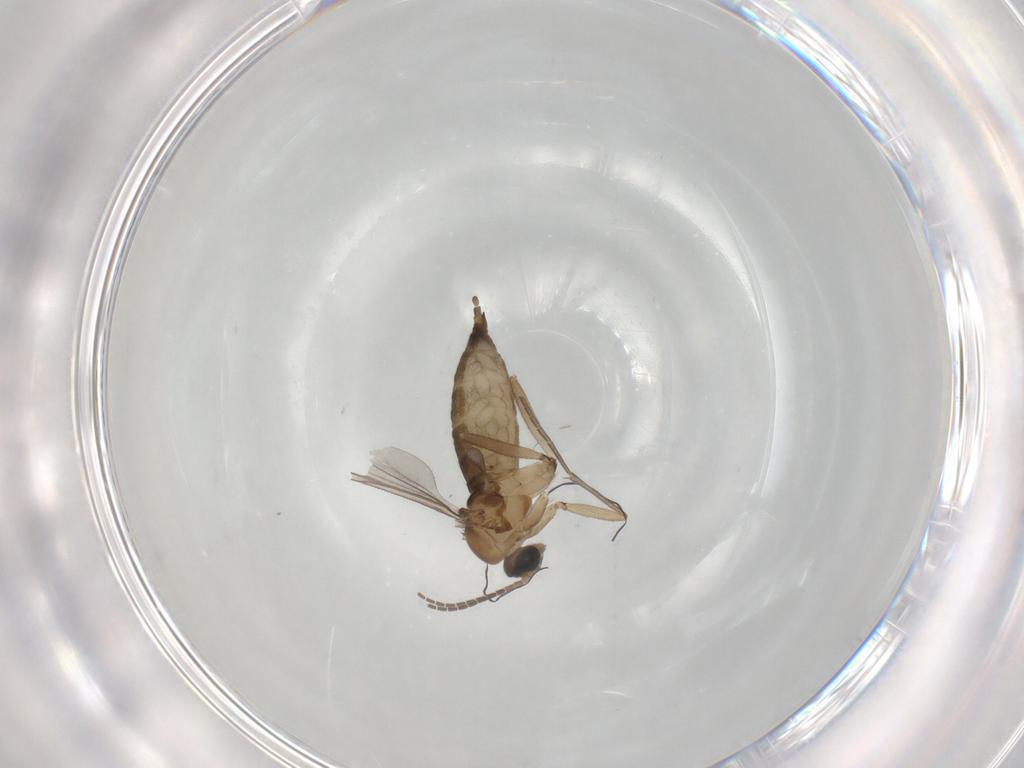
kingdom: Animalia
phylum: Arthropoda
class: Insecta
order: Diptera
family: Sciaridae
